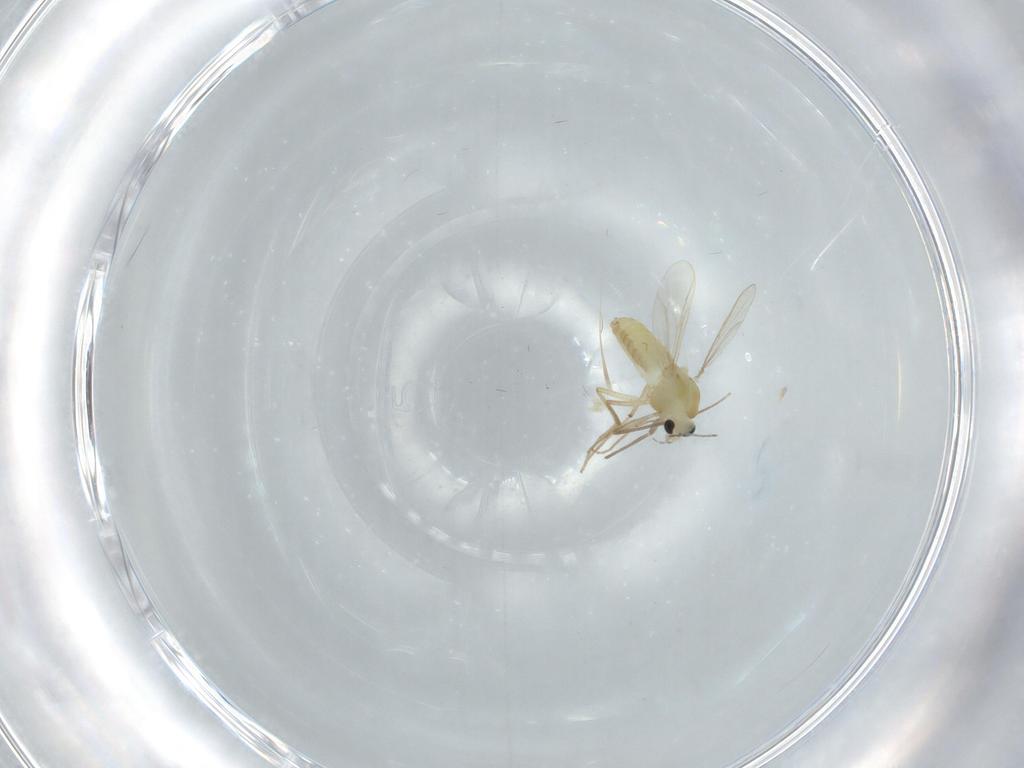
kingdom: Animalia
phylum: Arthropoda
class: Insecta
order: Diptera
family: Chironomidae
